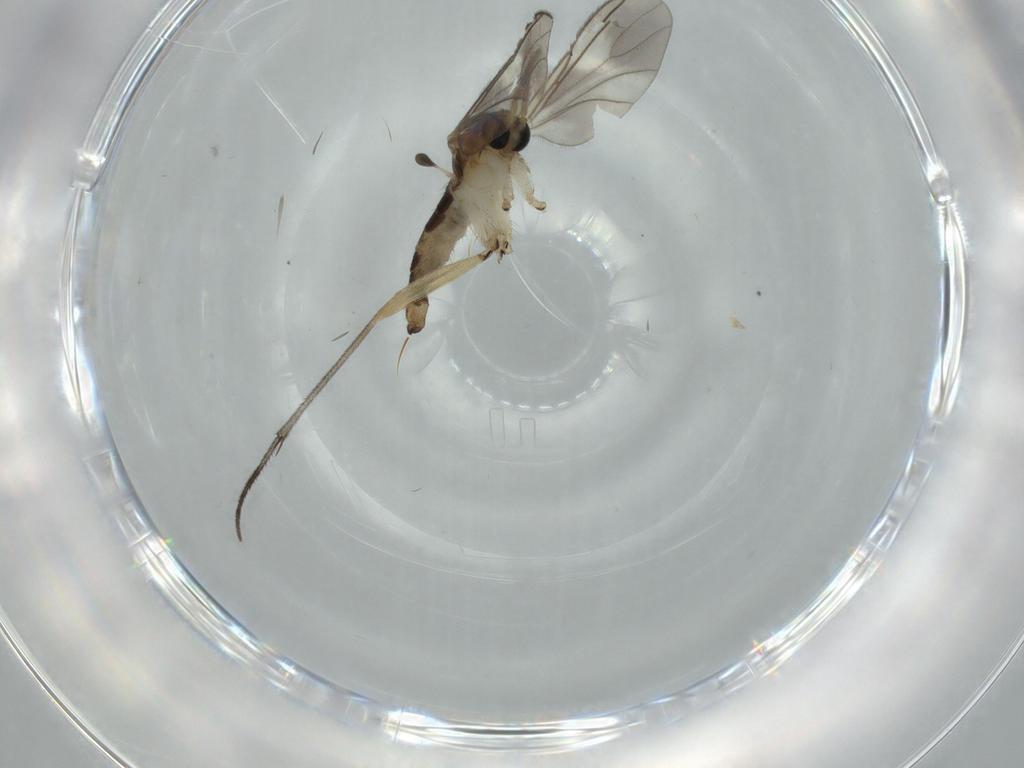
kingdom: Animalia
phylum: Arthropoda
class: Insecta
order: Diptera
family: Sciaridae
